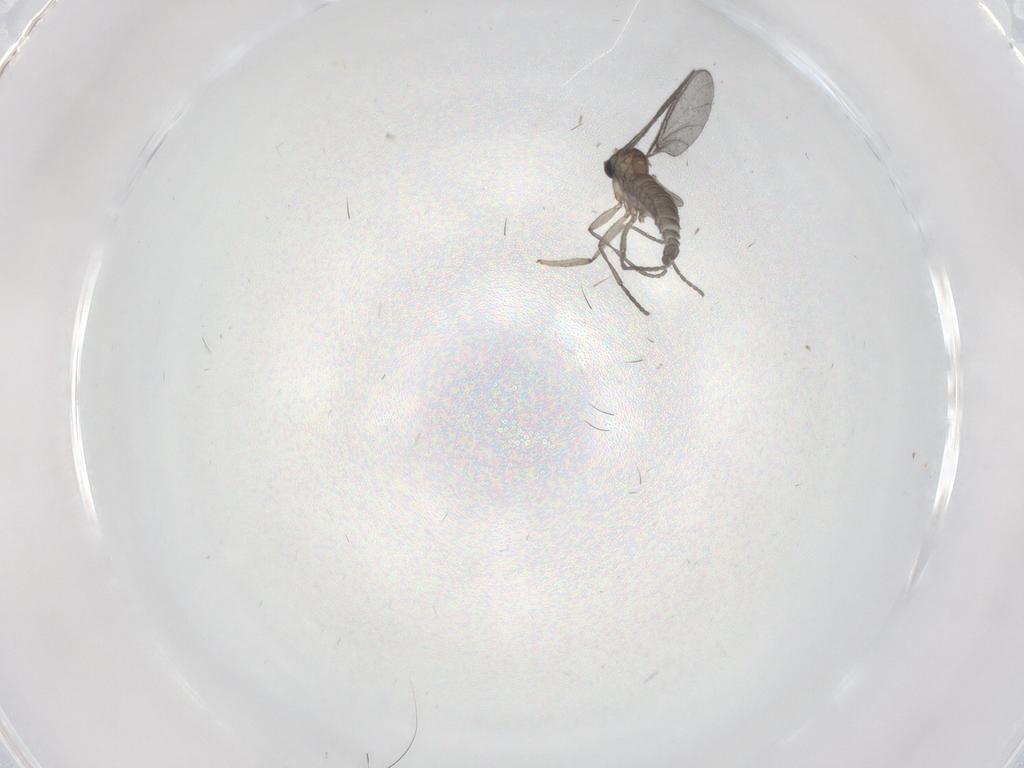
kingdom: Animalia
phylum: Arthropoda
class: Insecta
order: Diptera
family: Sciaridae
